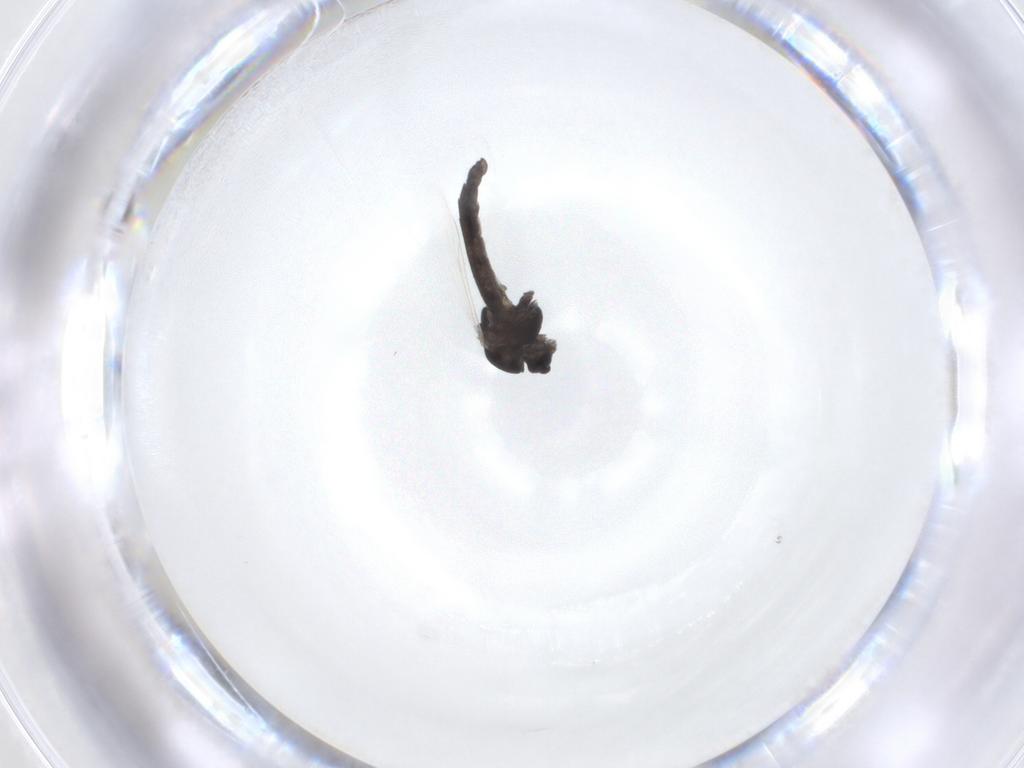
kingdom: Animalia
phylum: Arthropoda
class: Insecta
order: Diptera
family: Chironomidae
